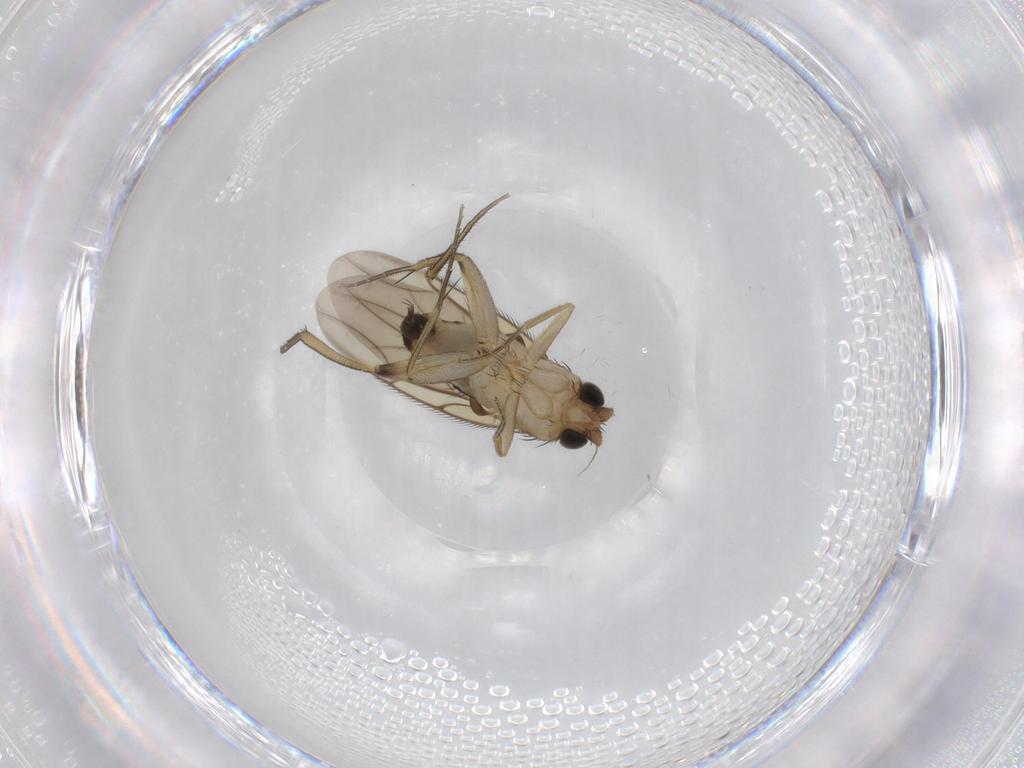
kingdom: Animalia
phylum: Arthropoda
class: Insecta
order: Diptera
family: Phoridae
